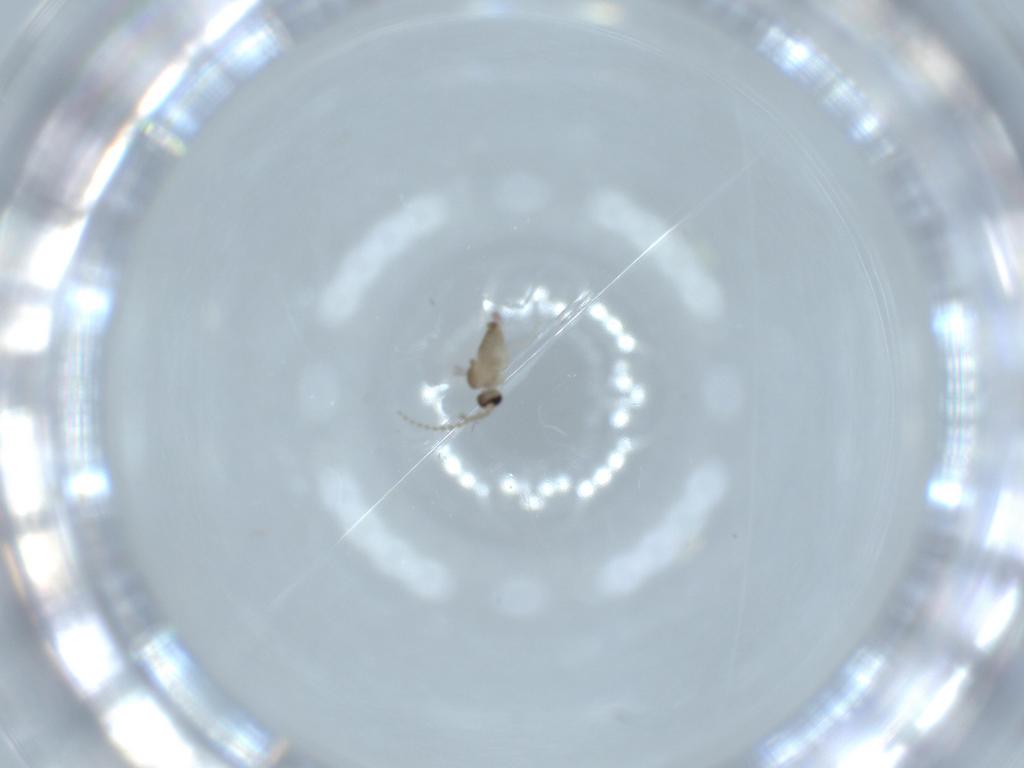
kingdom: Animalia
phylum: Arthropoda
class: Insecta
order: Diptera
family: Cecidomyiidae
